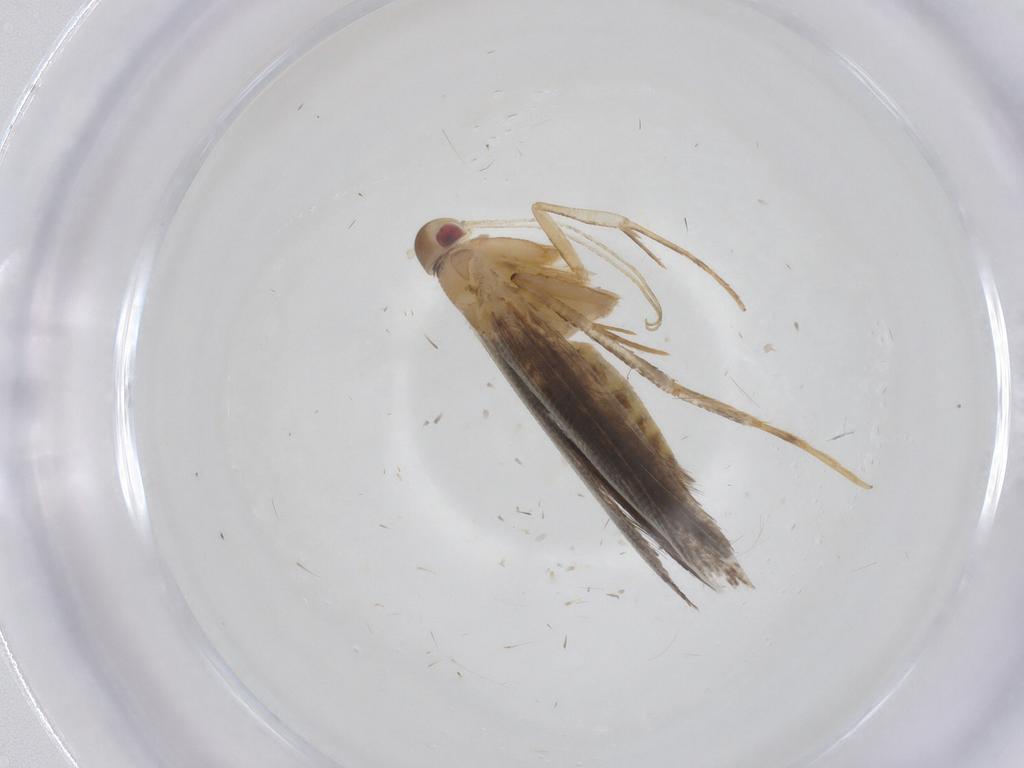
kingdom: Animalia
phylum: Arthropoda
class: Insecta
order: Lepidoptera
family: Cosmopterigidae
